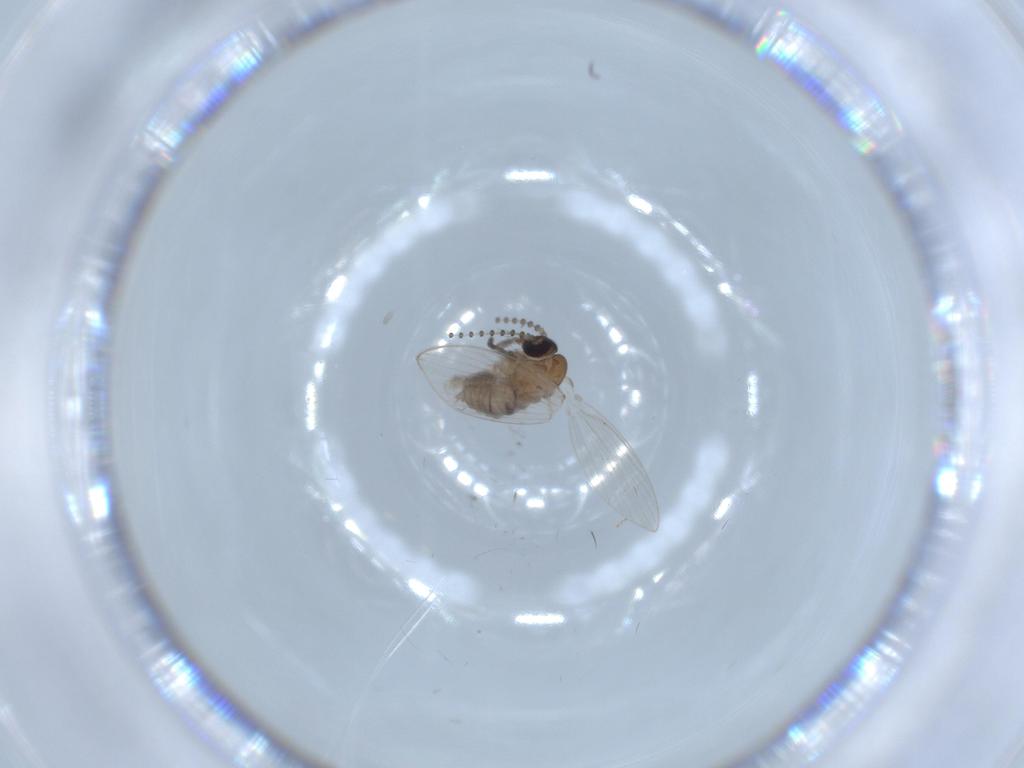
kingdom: Animalia
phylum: Arthropoda
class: Insecta
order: Diptera
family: Psychodidae
